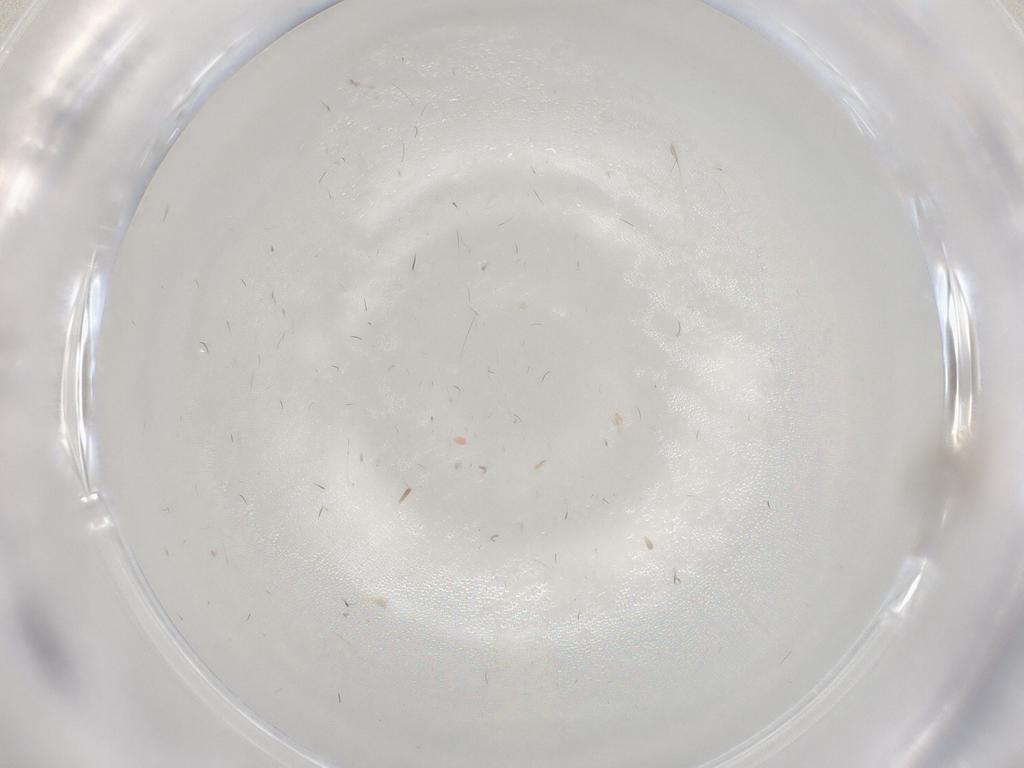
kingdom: Animalia
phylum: Arthropoda
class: Insecta
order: Diptera
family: Cecidomyiidae
